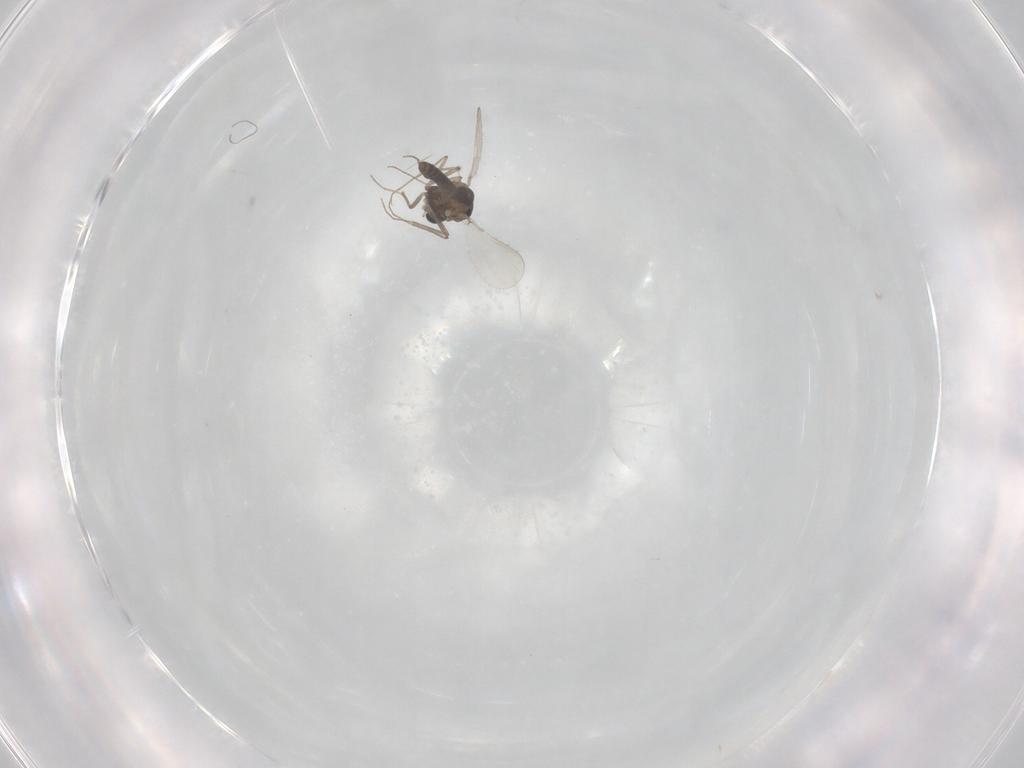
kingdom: Animalia
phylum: Arthropoda
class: Insecta
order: Diptera
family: Chironomidae
